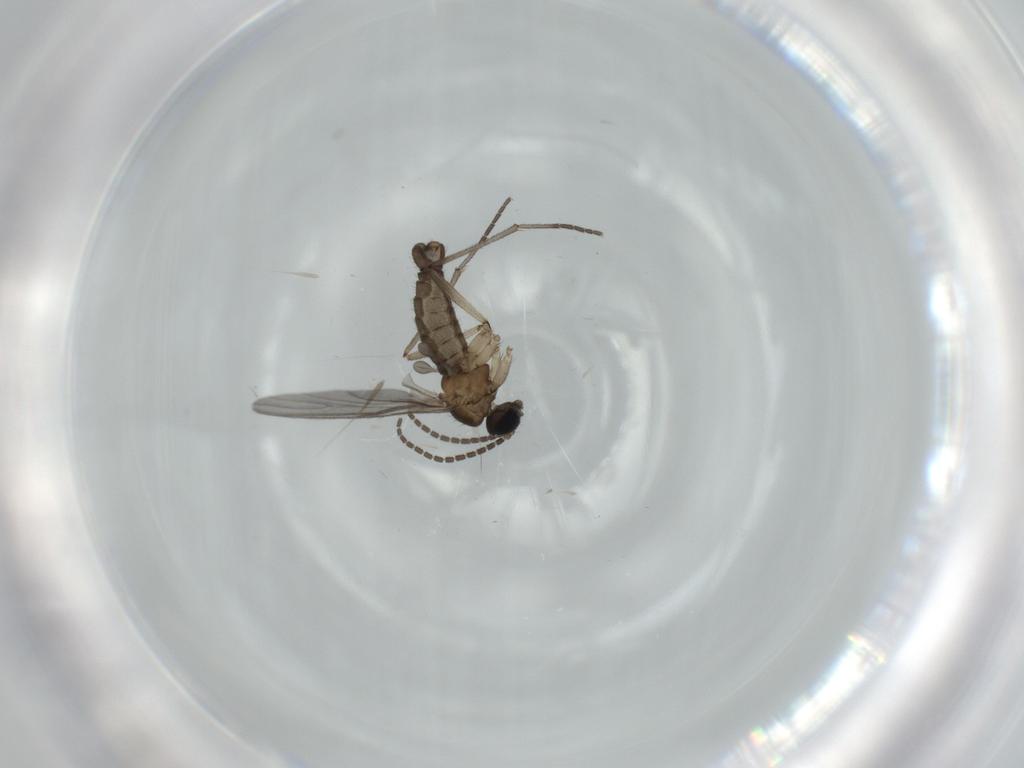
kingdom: Animalia
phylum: Arthropoda
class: Insecta
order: Diptera
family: Sciaridae
